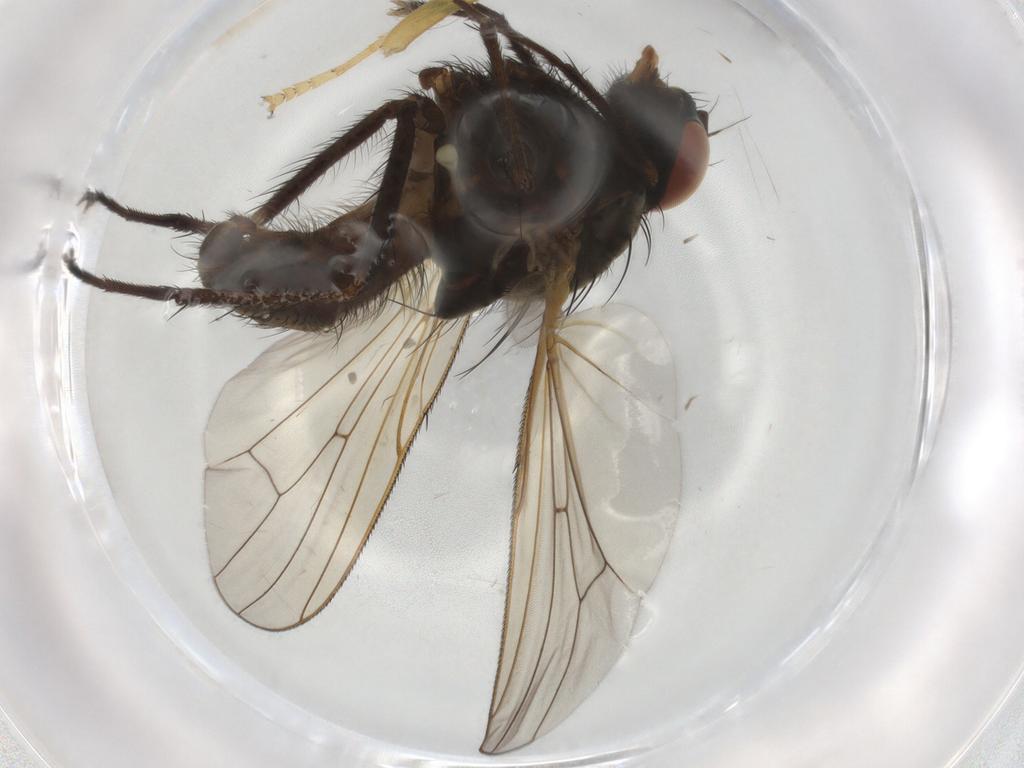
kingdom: Animalia
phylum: Arthropoda
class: Insecta
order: Diptera
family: Anthomyiidae
